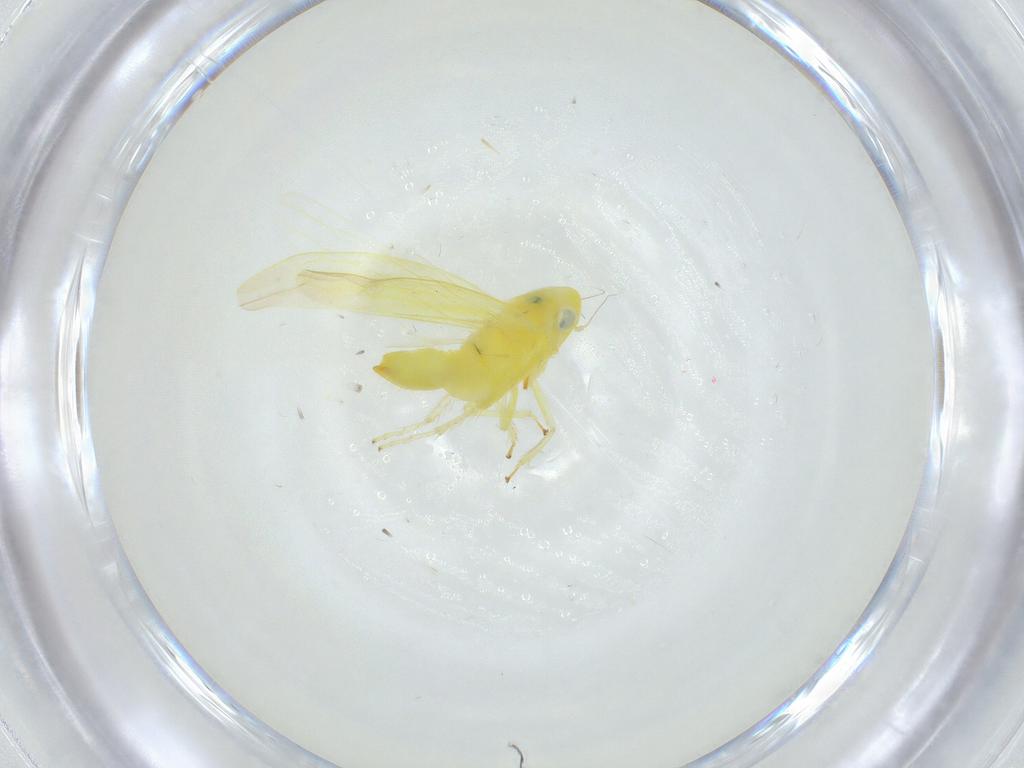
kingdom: Animalia
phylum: Arthropoda
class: Insecta
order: Hemiptera
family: Cicadellidae
